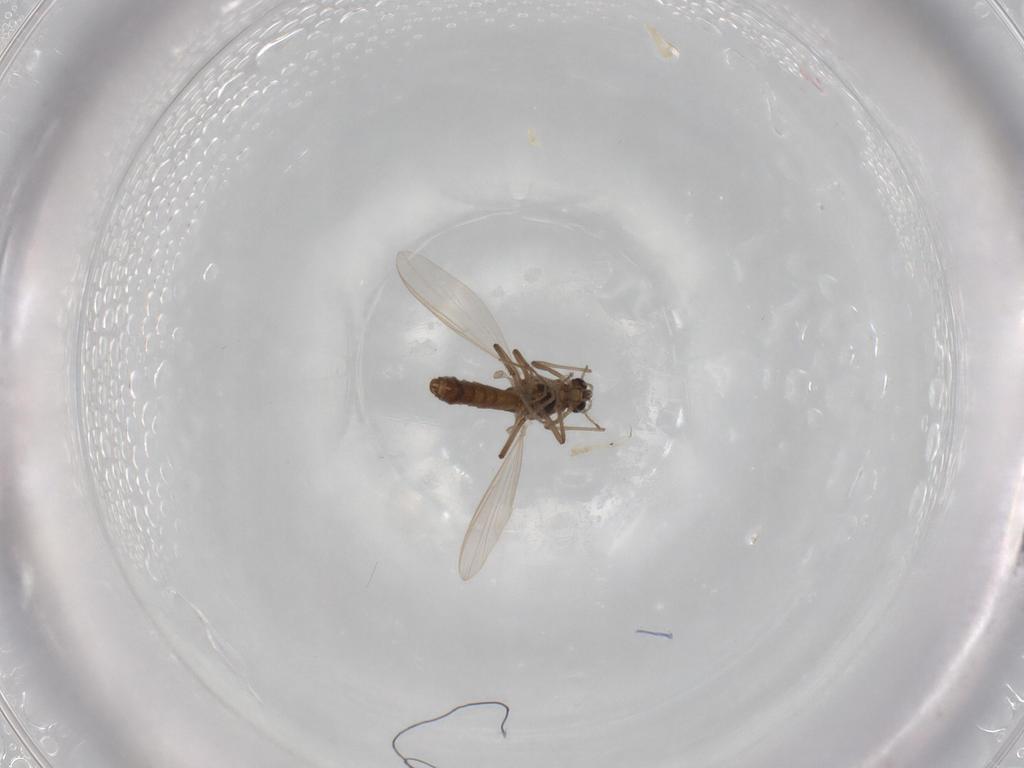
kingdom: Animalia
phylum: Arthropoda
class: Insecta
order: Diptera
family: Chironomidae
